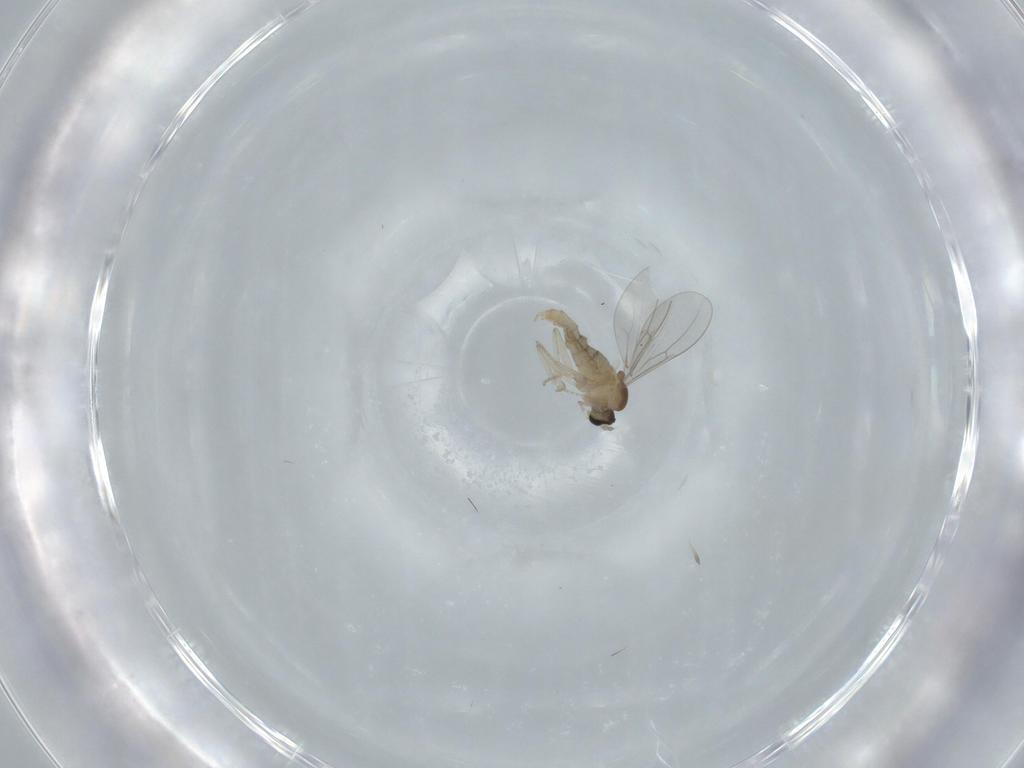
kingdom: Animalia
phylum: Arthropoda
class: Insecta
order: Diptera
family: Cecidomyiidae
